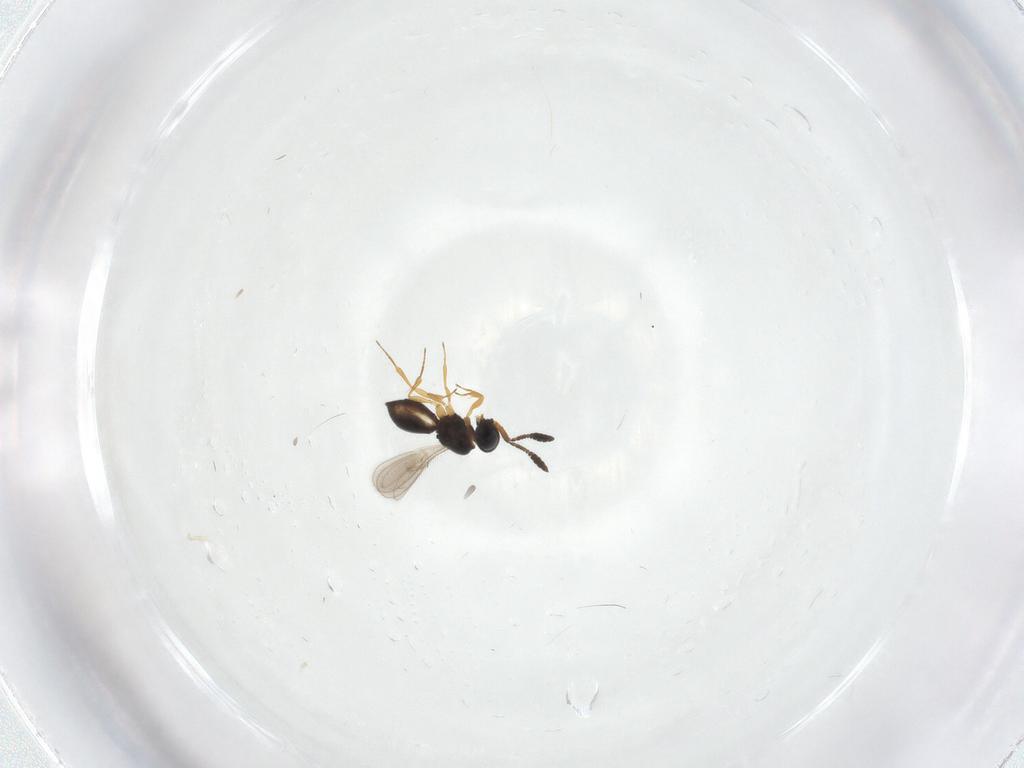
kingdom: Animalia
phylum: Arthropoda
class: Insecta
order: Hymenoptera
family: Scelionidae
